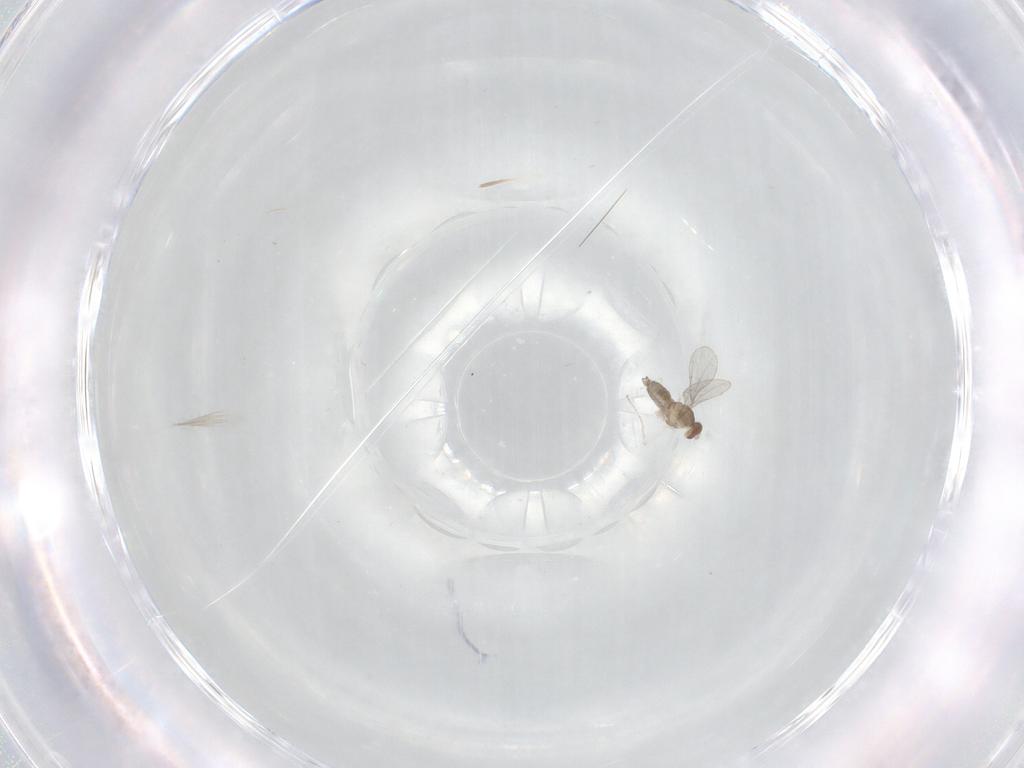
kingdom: Animalia
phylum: Arthropoda
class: Insecta
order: Diptera
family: Cecidomyiidae
